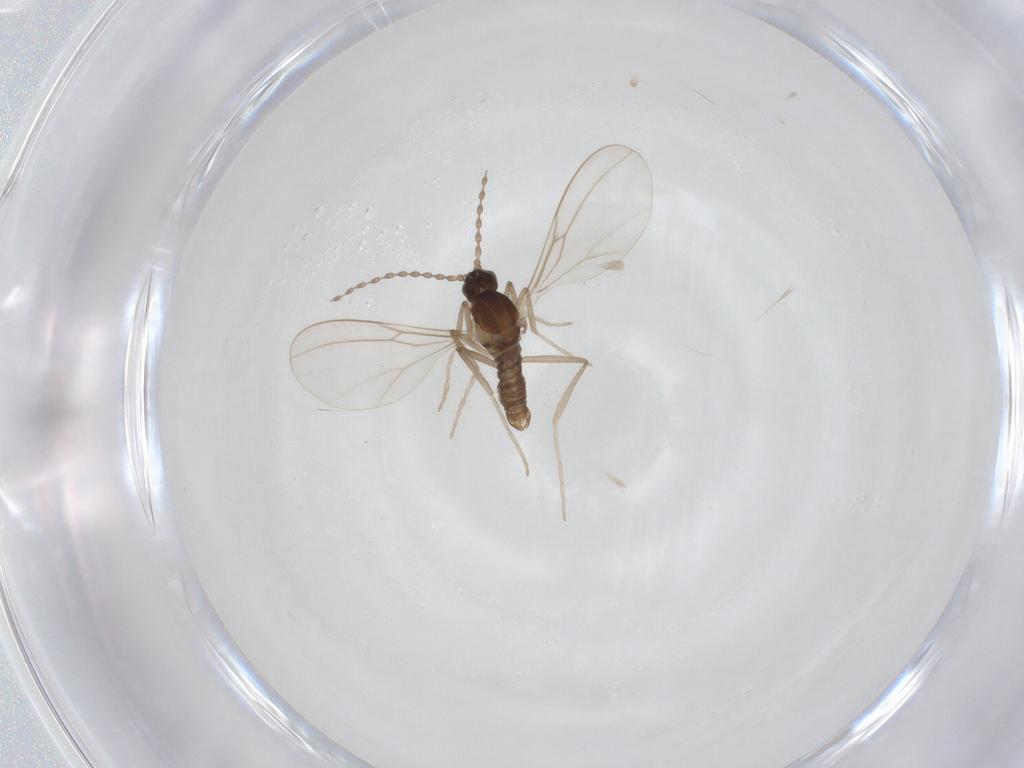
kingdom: Animalia
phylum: Arthropoda
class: Insecta
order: Diptera
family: Cecidomyiidae
